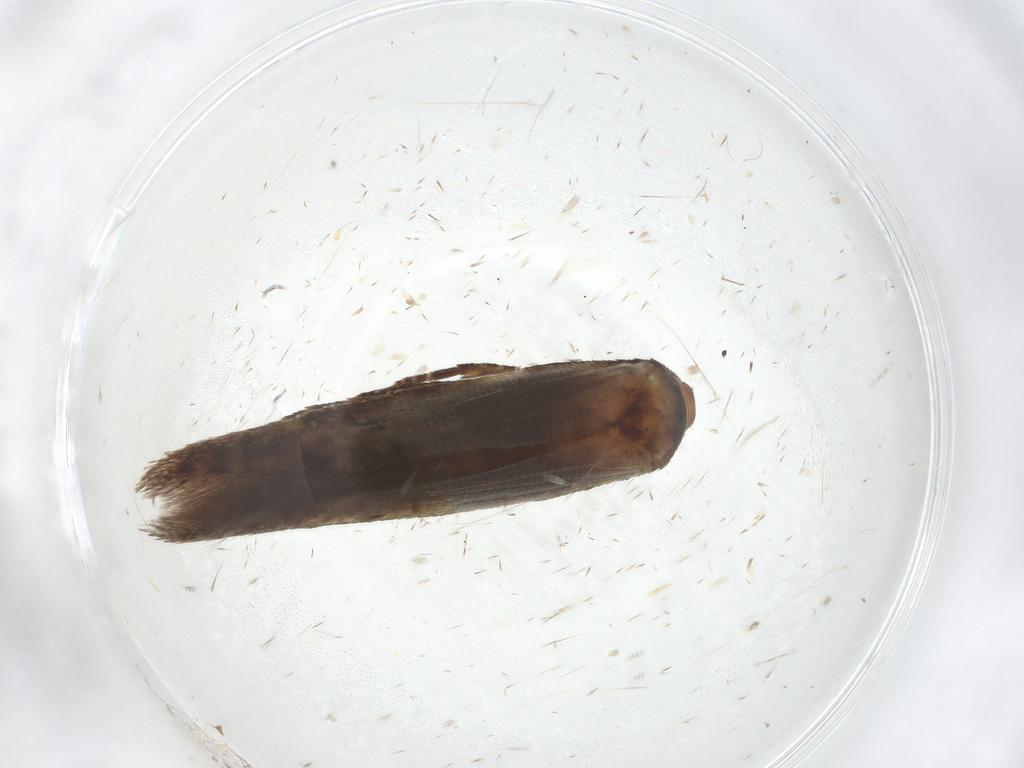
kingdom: Animalia
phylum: Arthropoda
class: Insecta
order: Lepidoptera
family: Cosmopterigidae
